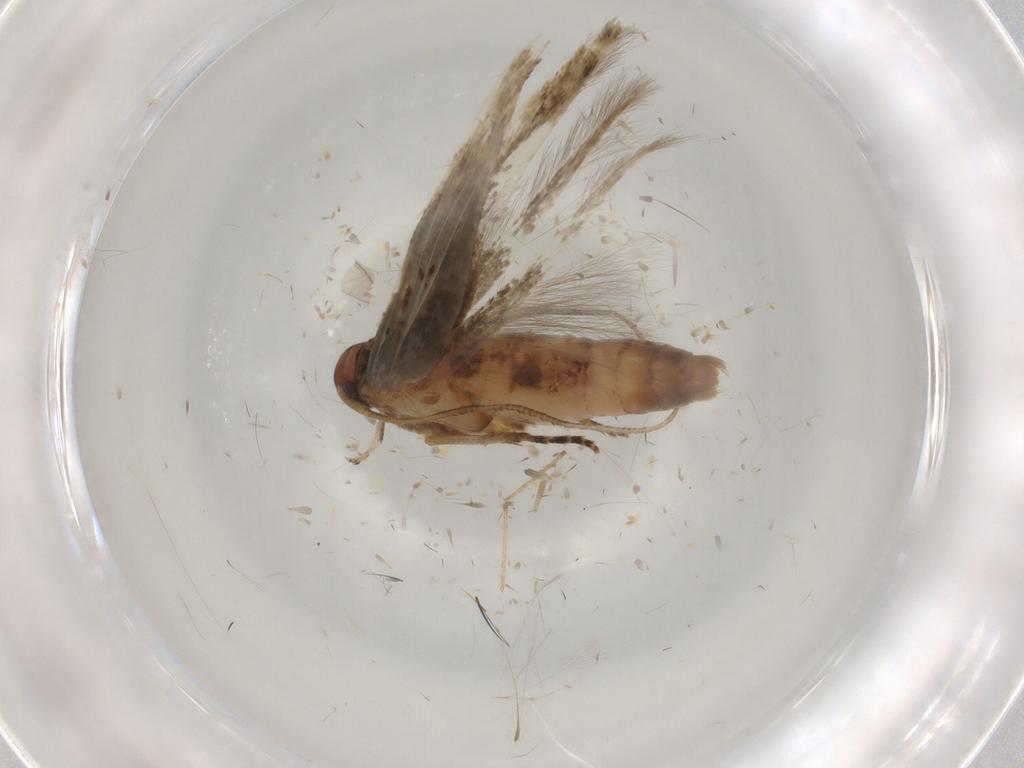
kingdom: Animalia
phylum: Arthropoda
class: Insecta
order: Lepidoptera
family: Cosmopterigidae
